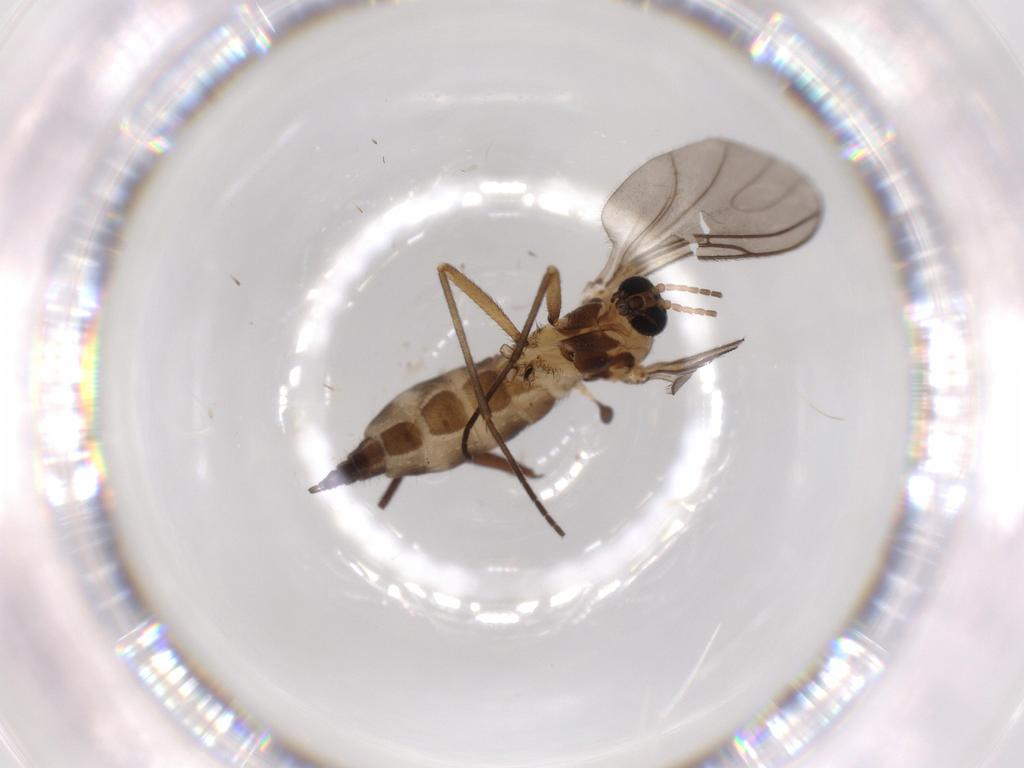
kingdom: Animalia
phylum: Arthropoda
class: Insecta
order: Diptera
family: Sciaridae
